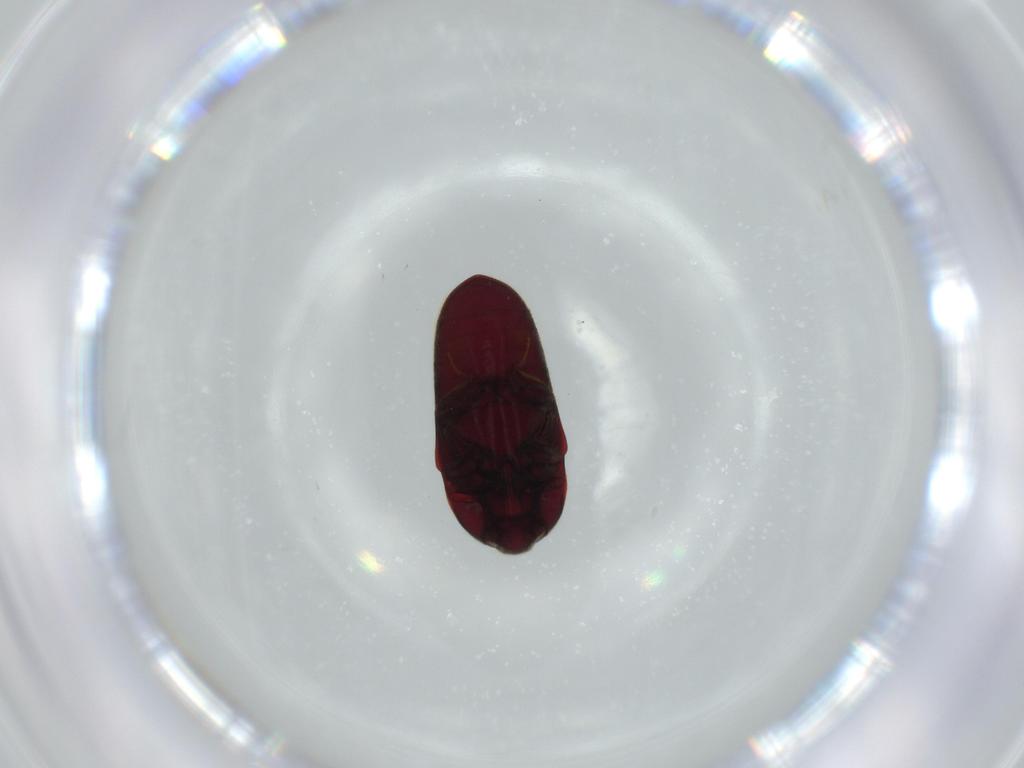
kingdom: Animalia
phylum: Arthropoda
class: Insecta
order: Coleoptera
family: Throscidae
